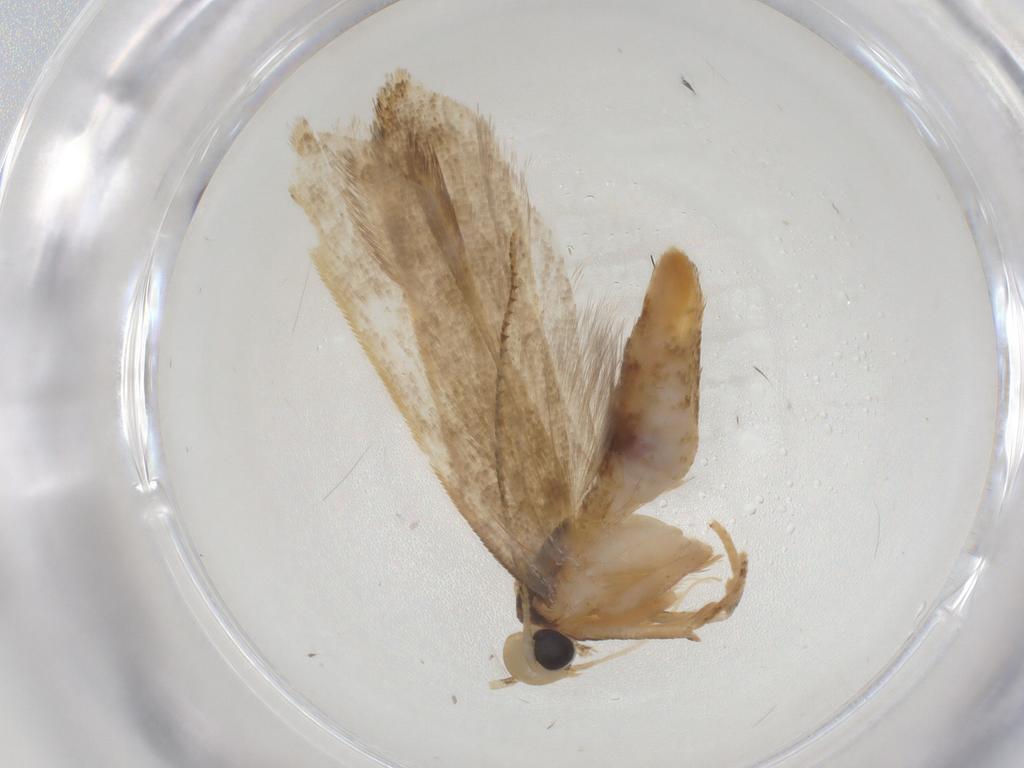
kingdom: Animalia
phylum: Arthropoda
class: Insecta
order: Lepidoptera
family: Gelechiidae
